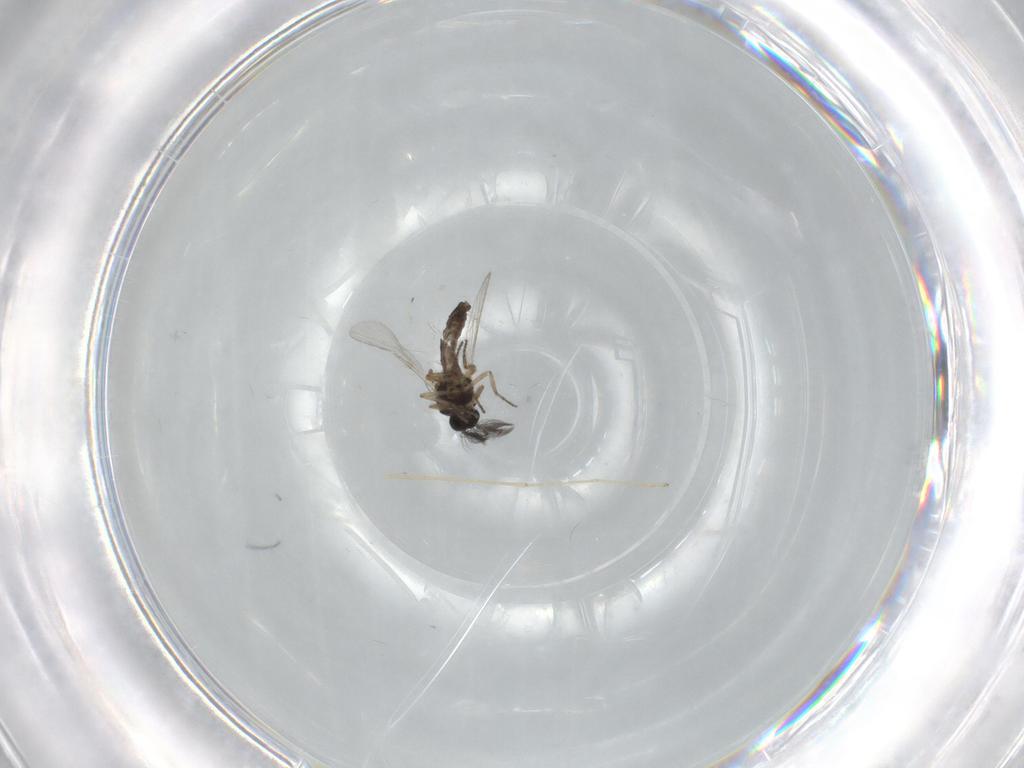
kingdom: Animalia
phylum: Arthropoda
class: Insecta
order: Diptera
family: Ceratopogonidae
